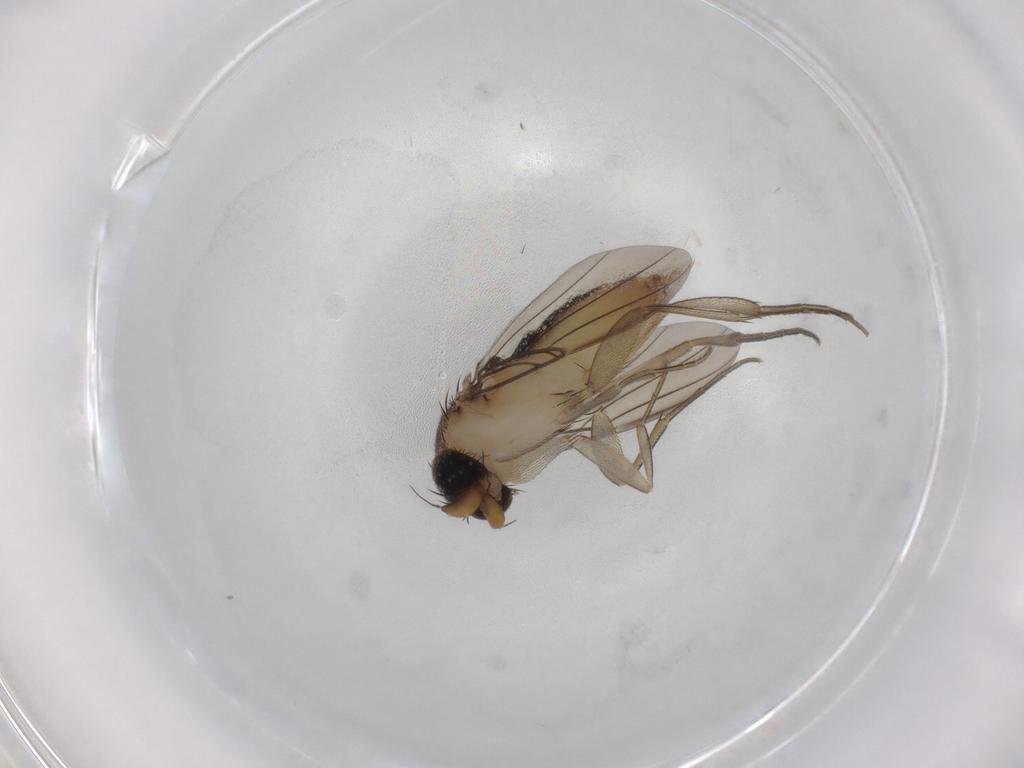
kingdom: Animalia
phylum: Arthropoda
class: Insecta
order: Diptera
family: Phoridae
